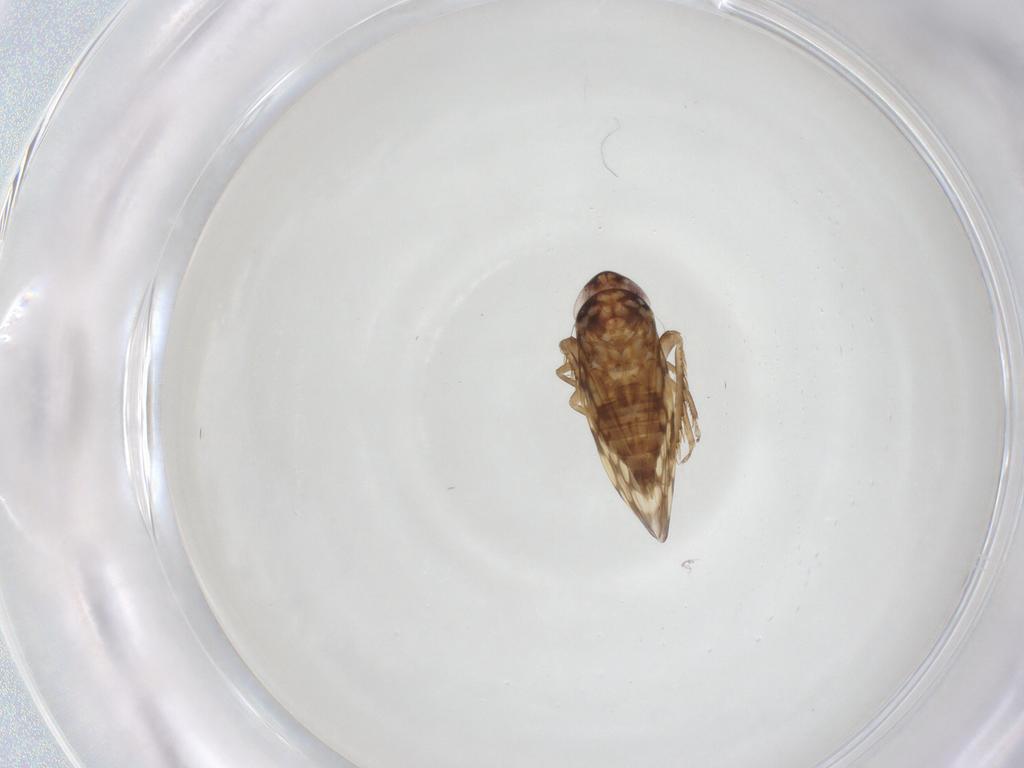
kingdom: Animalia
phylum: Arthropoda
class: Insecta
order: Hemiptera
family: Cicadellidae
